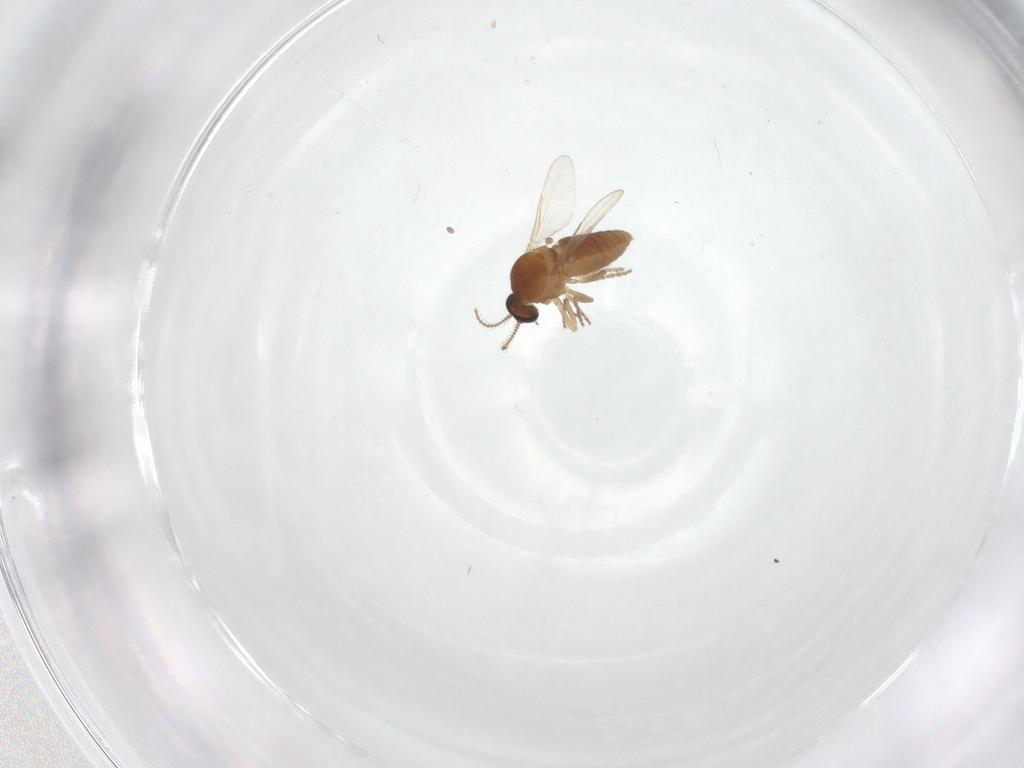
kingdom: Animalia
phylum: Arthropoda
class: Insecta
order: Diptera
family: Ceratopogonidae
